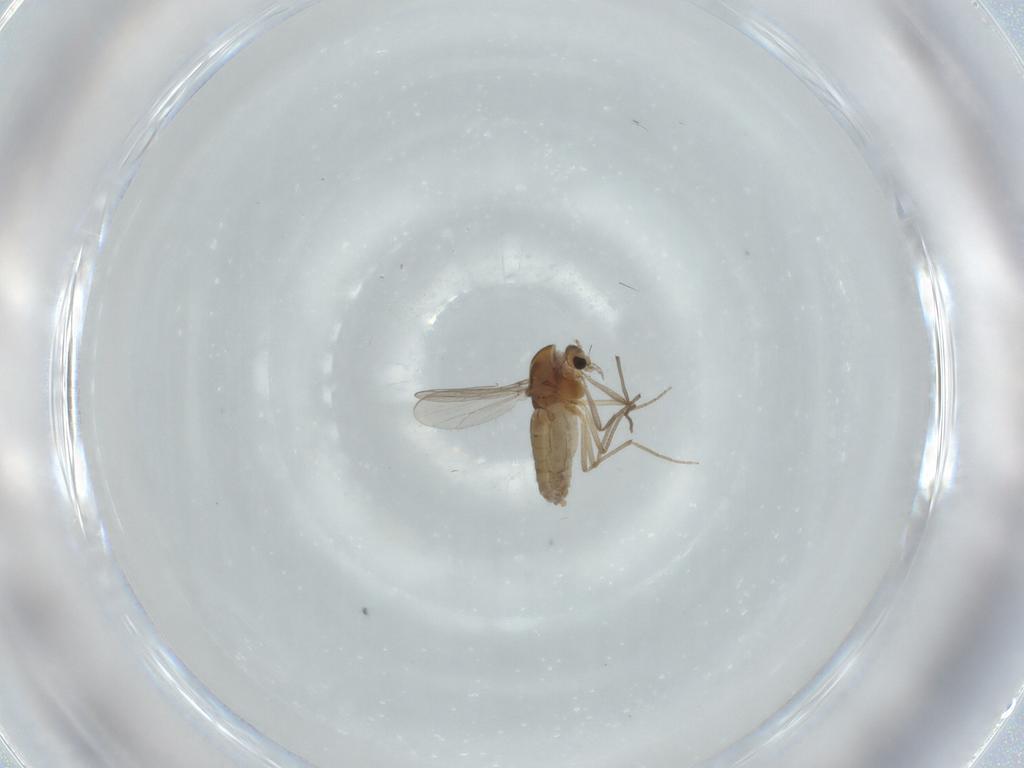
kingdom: Animalia
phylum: Arthropoda
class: Insecta
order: Diptera
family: Chironomidae
